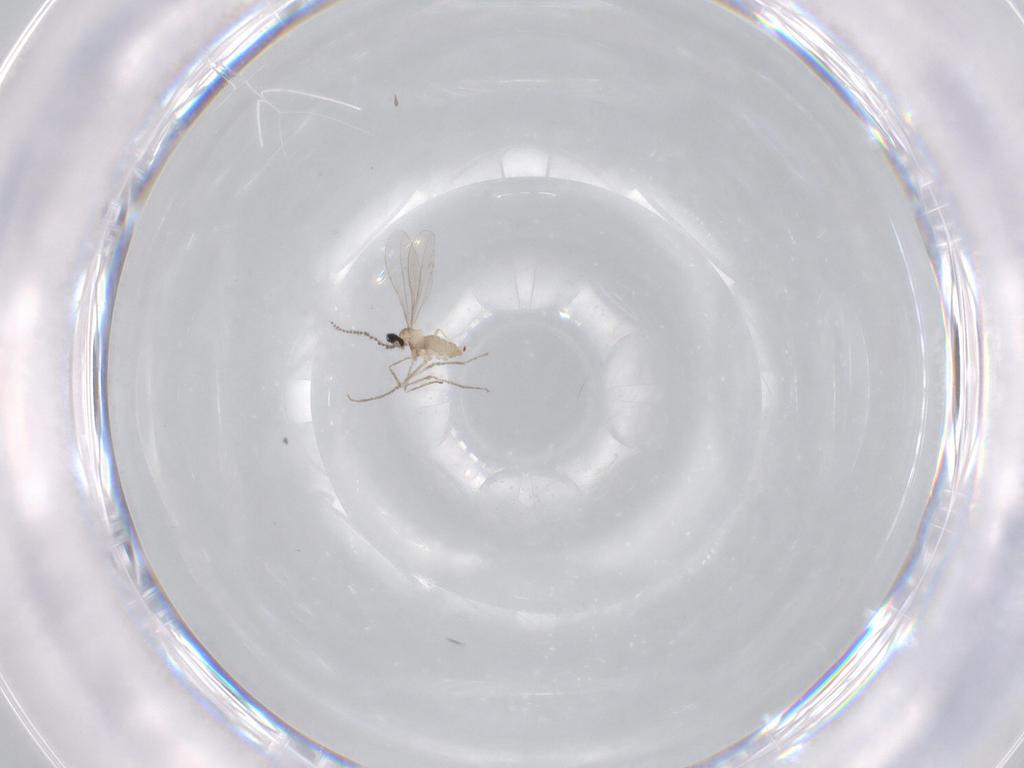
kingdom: Animalia
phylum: Arthropoda
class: Insecta
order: Diptera
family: Cecidomyiidae
